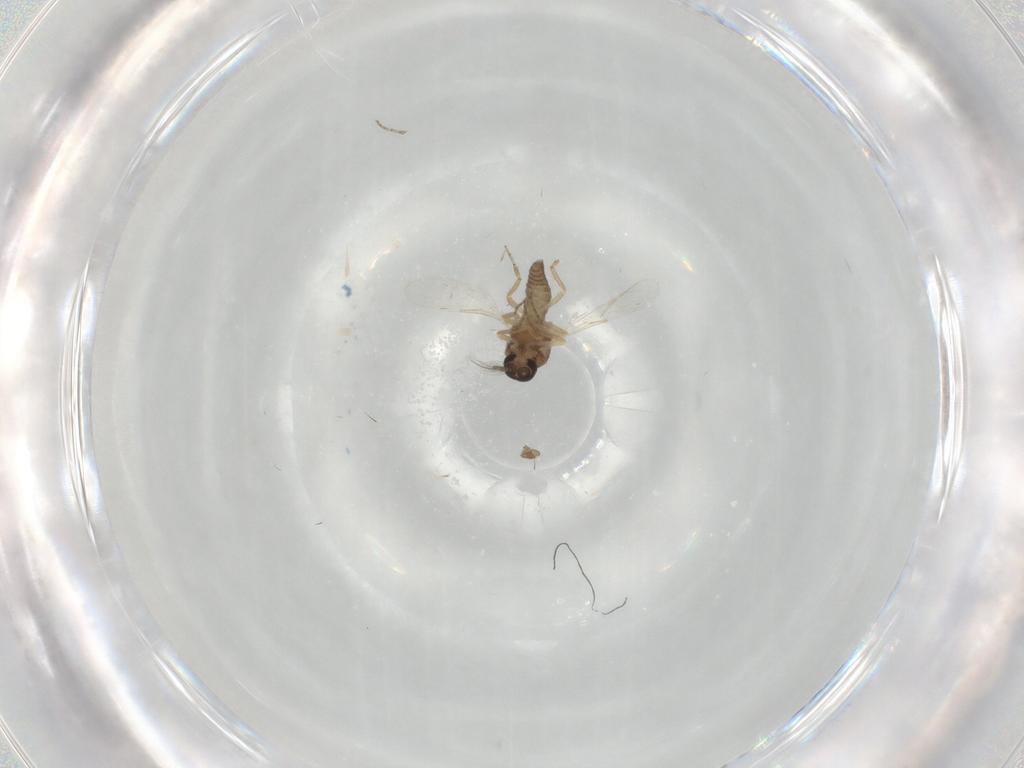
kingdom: Animalia
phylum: Arthropoda
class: Insecta
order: Diptera
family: Ceratopogonidae
